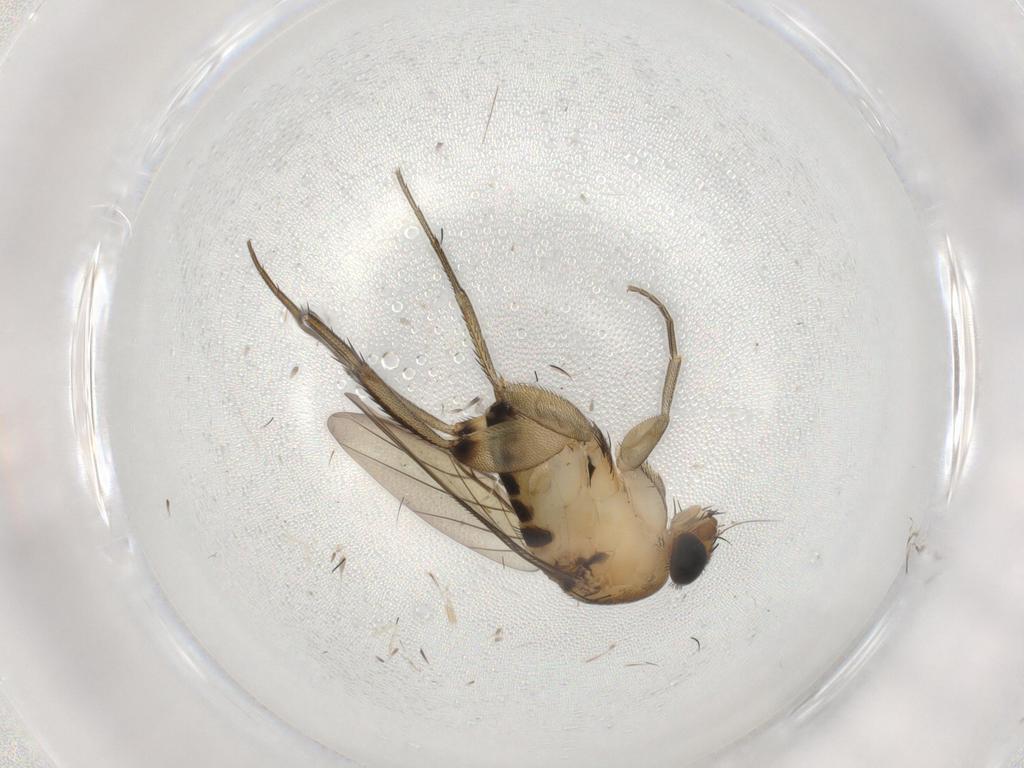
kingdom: Animalia
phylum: Arthropoda
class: Insecta
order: Diptera
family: Phoridae
